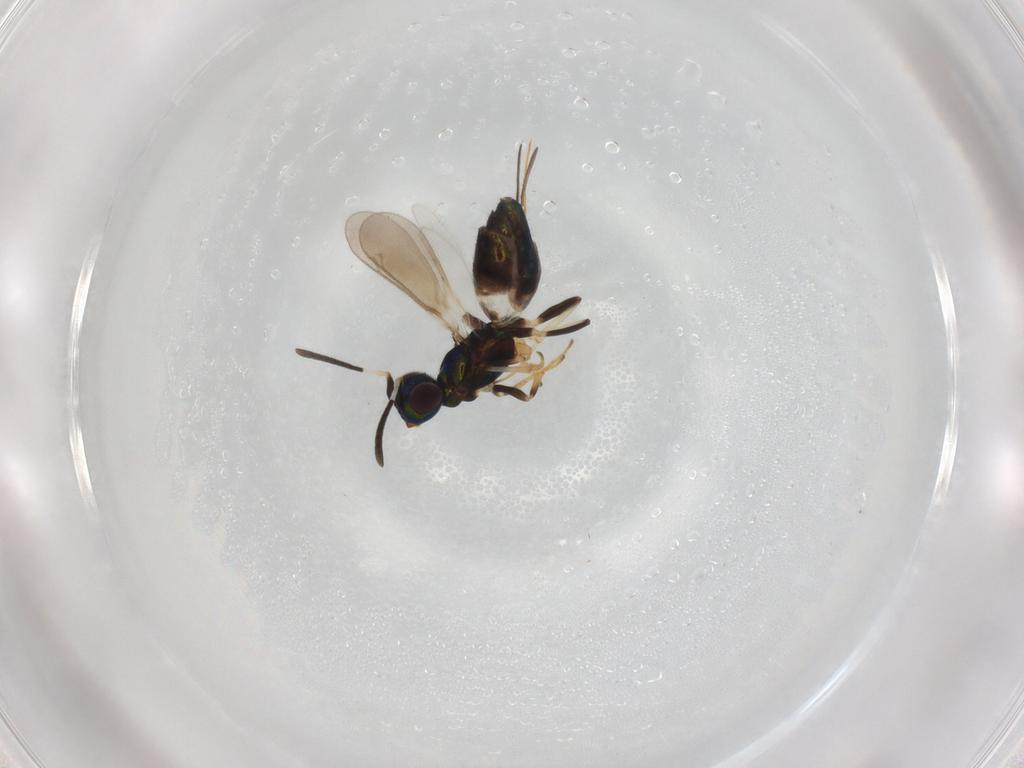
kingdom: Animalia
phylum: Arthropoda
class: Insecta
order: Hymenoptera
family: Eupelmidae
